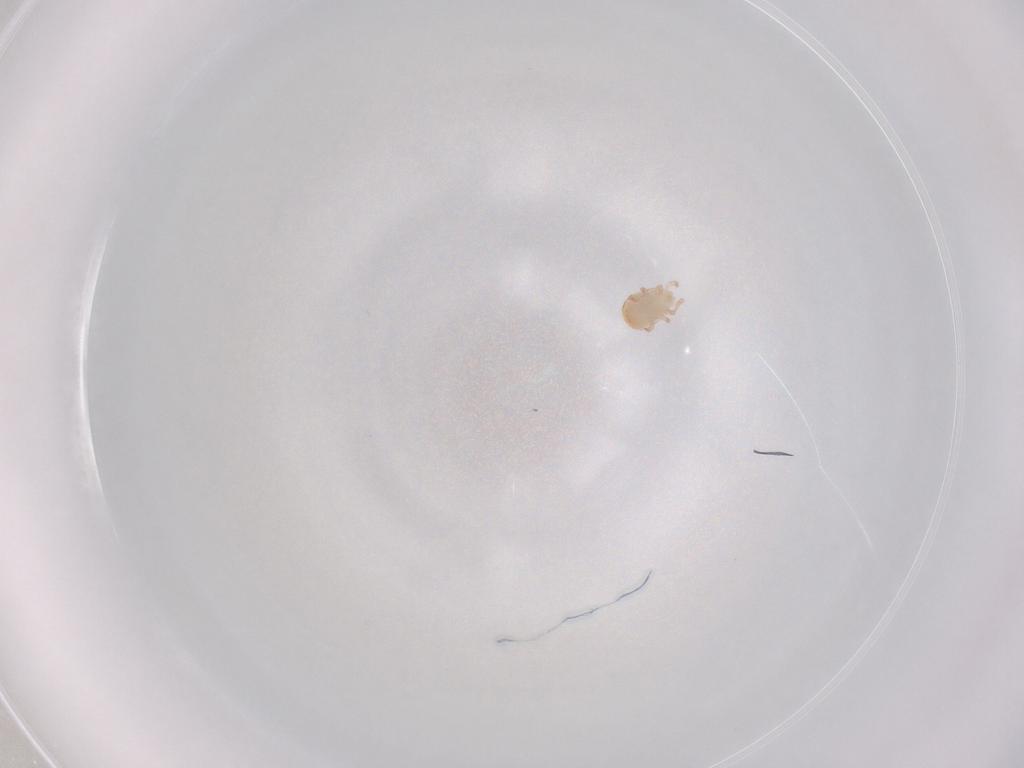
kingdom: Animalia
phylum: Arthropoda
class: Arachnida
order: Mesostigmata
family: Zerconidae
